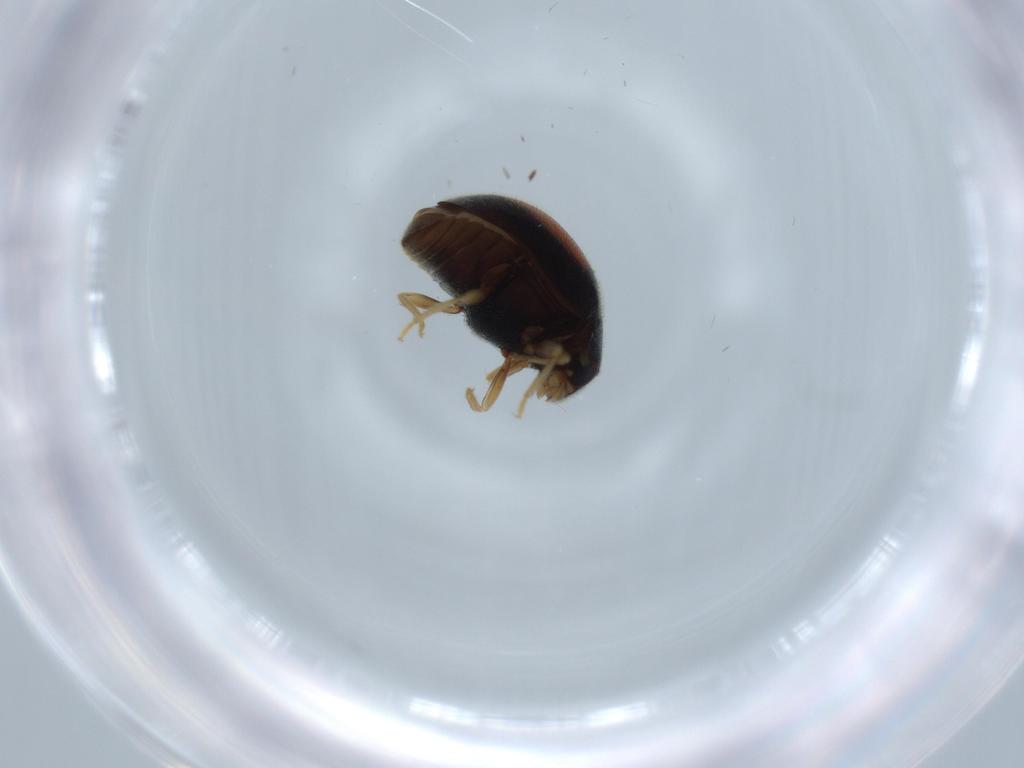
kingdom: Animalia
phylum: Arthropoda
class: Insecta
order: Coleoptera
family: Coccinellidae
